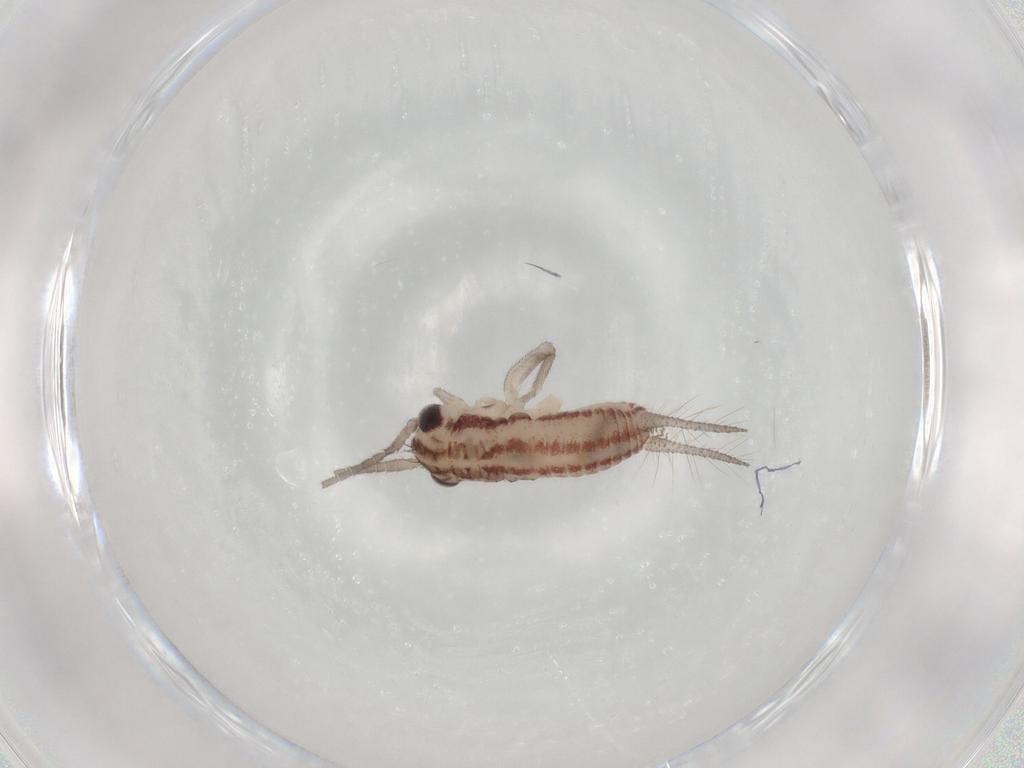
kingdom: Animalia
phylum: Arthropoda
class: Insecta
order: Orthoptera
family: Trigonidiidae
